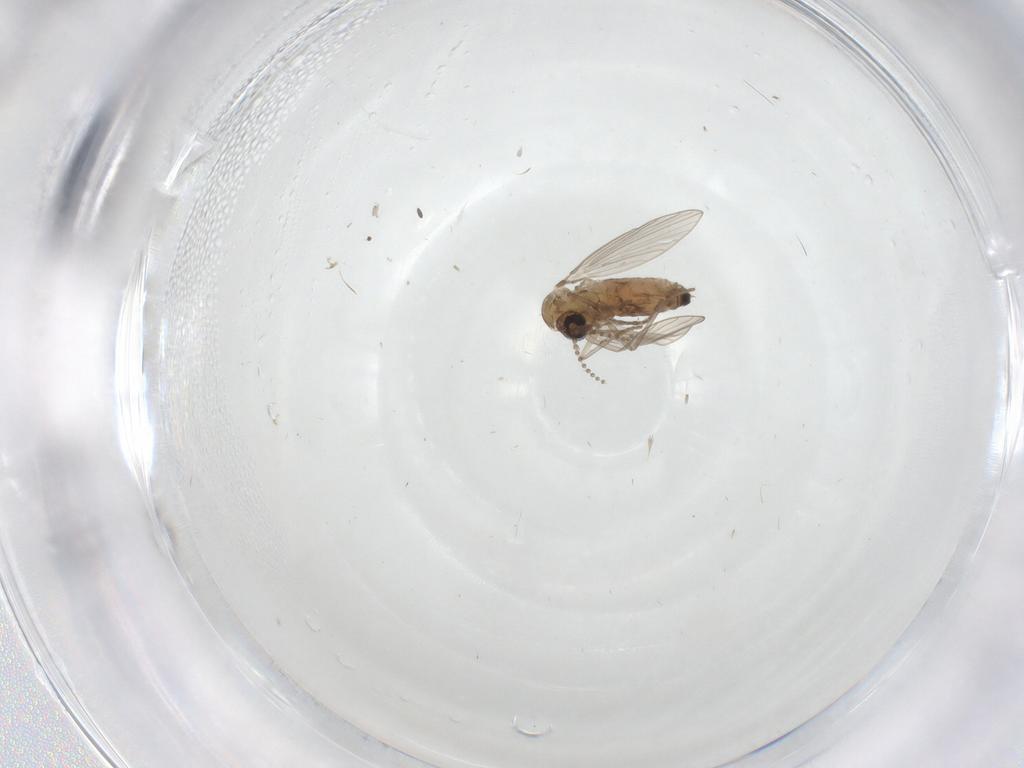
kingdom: Animalia
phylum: Arthropoda
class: Insecta
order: Diptera
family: Psychodidae
